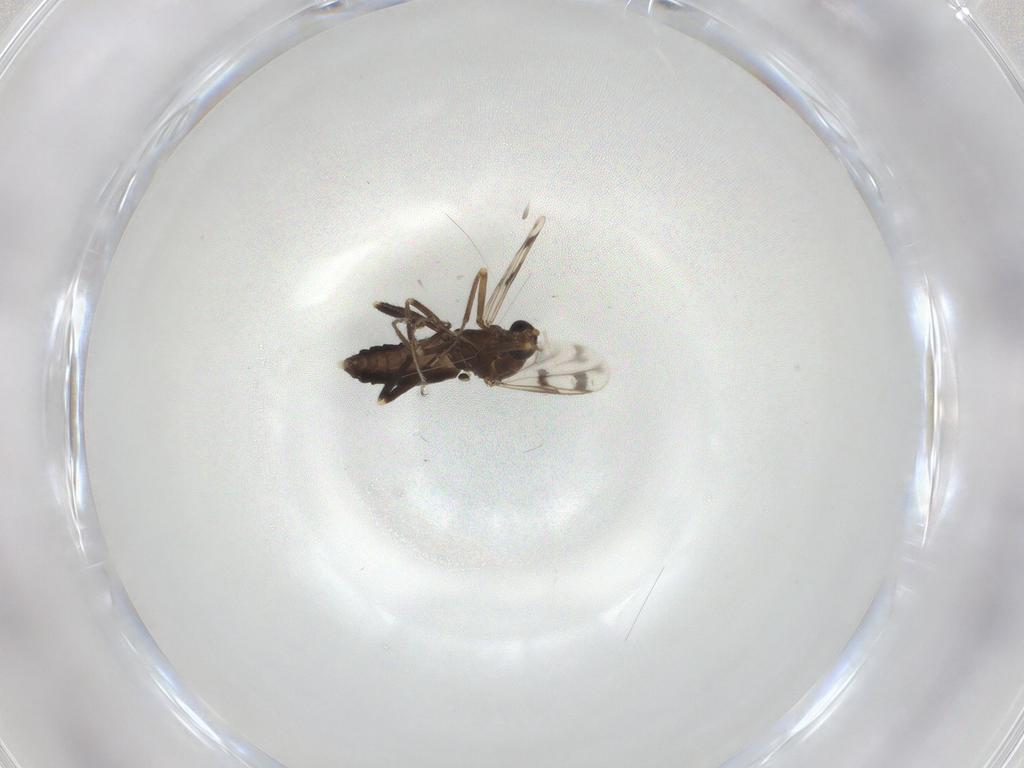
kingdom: Animalia
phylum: Arthropoda
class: Insecta
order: Diptera
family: Ceratopogonidae
